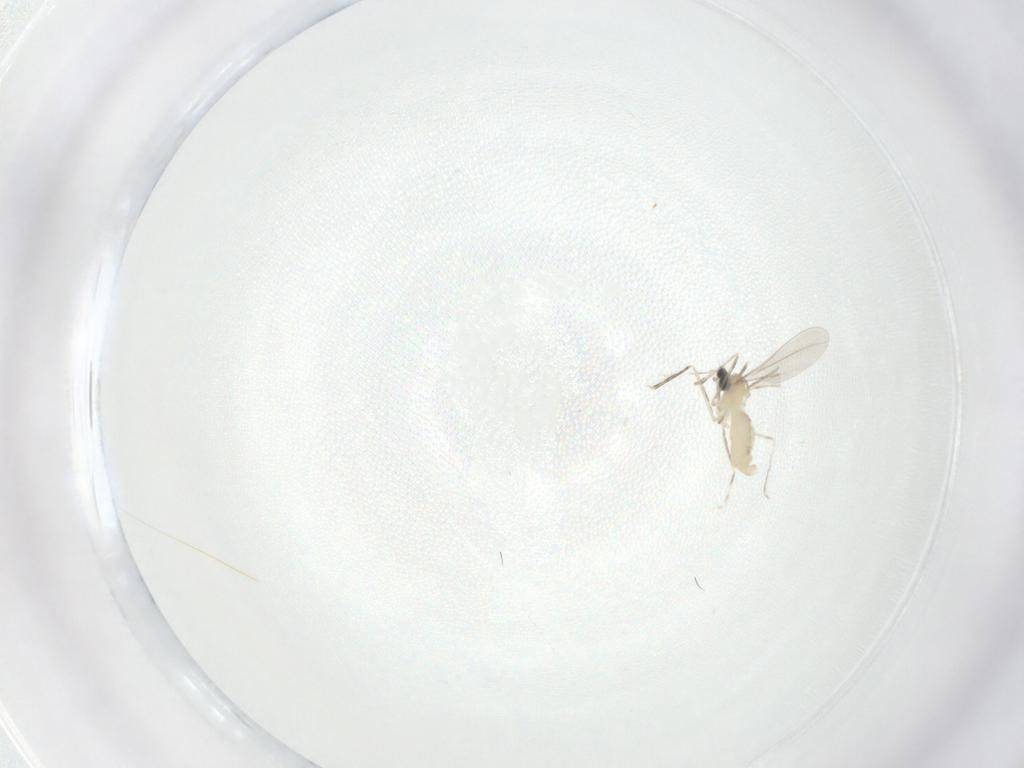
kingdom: Animalia
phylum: Arthropoda
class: Insecta
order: Diptera
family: Cecidomyiidae
